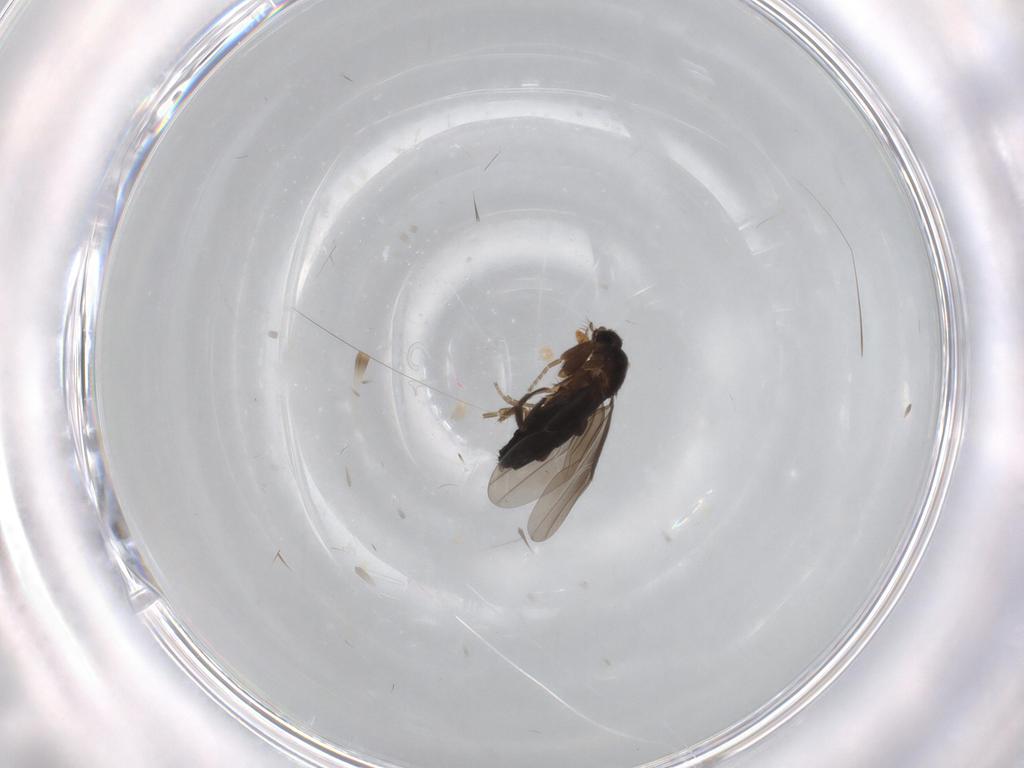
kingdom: Animalia
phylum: Arthropoda
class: Insecta
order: Diptera
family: Phoridae
